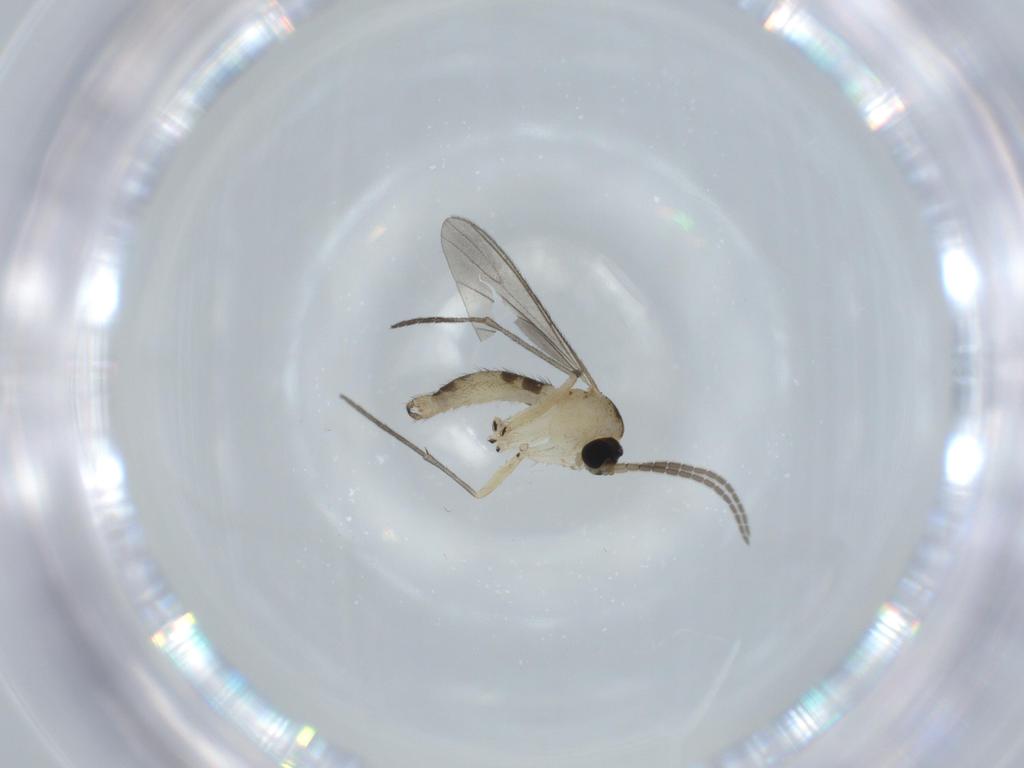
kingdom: Animalia
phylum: Arthropoda
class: Insecta
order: Diptera
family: Sciaridae
